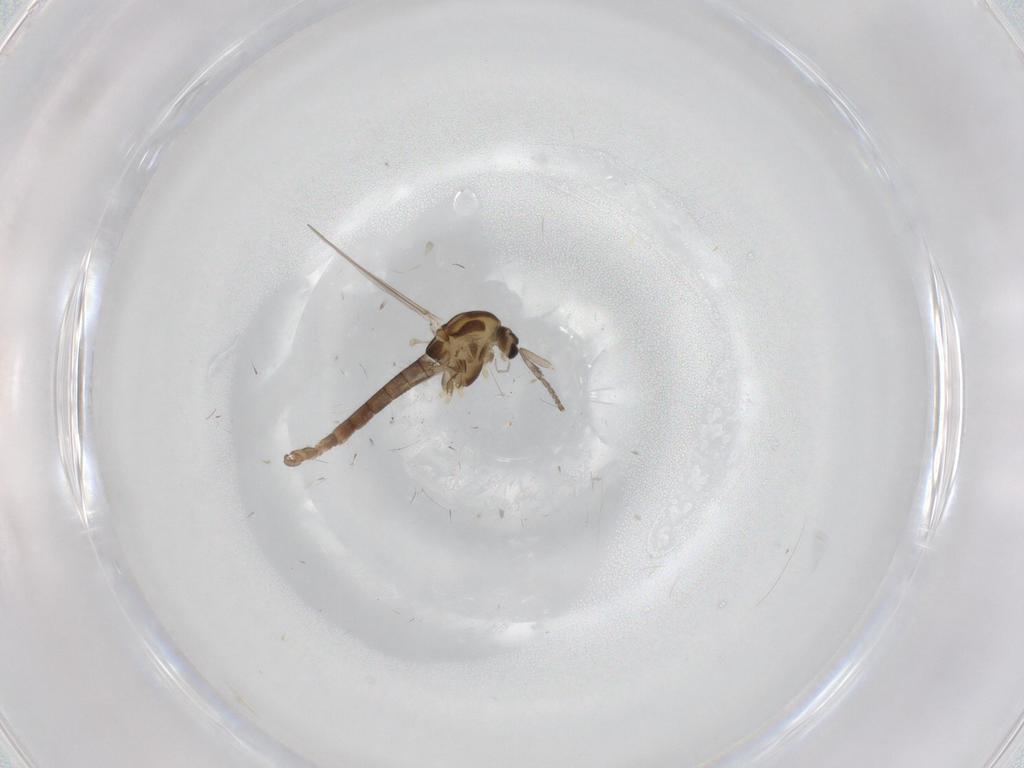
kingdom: Animalia
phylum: Arthropoda
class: Insecta
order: Diptera
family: Chironomidae
